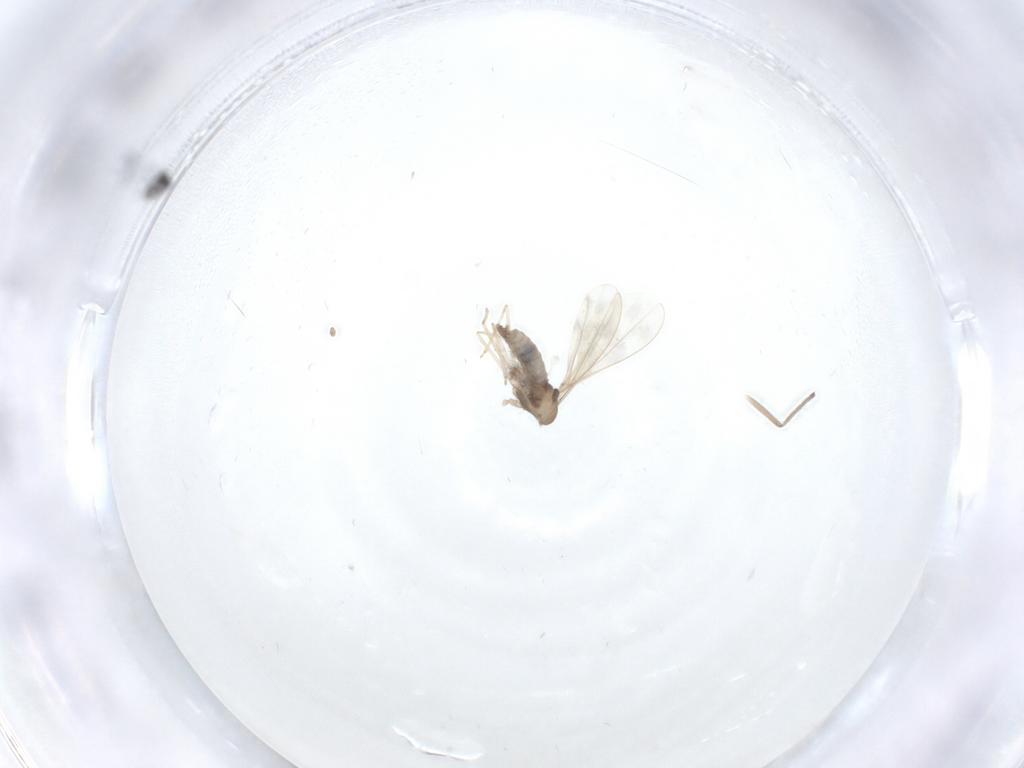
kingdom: Animalia
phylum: Arthropoda
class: Insecta
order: Diptera
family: Cecidomyiidae
